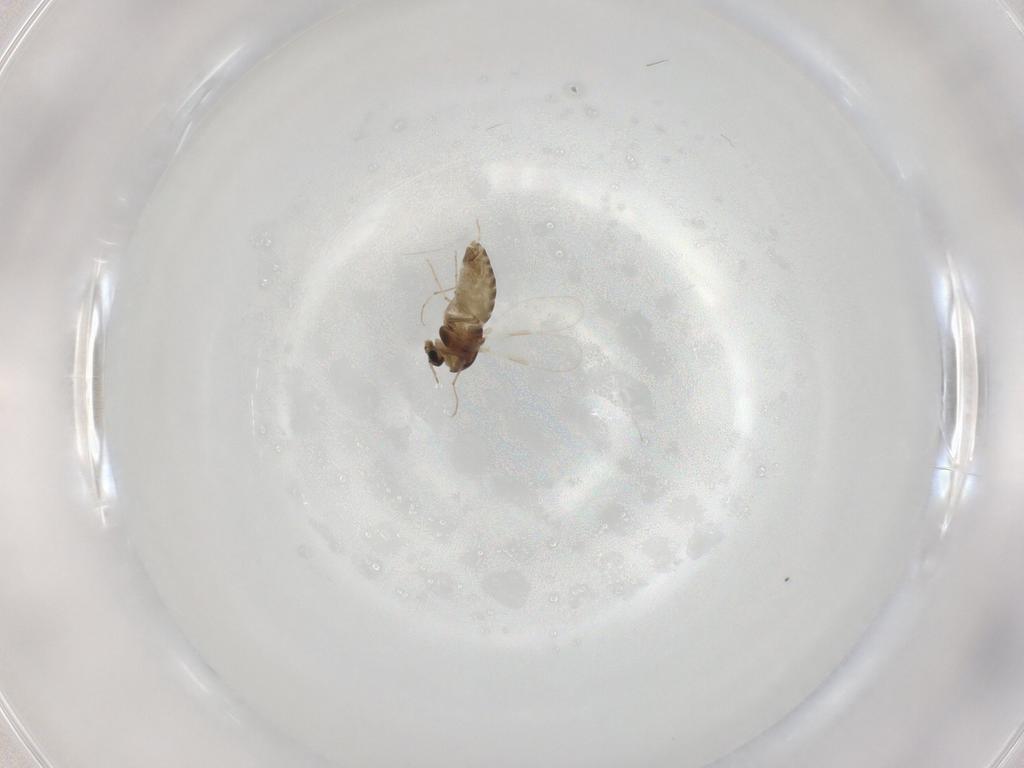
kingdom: Animalia
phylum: Arthropoda
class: Insecta
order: Diptera
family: Chironomidae
